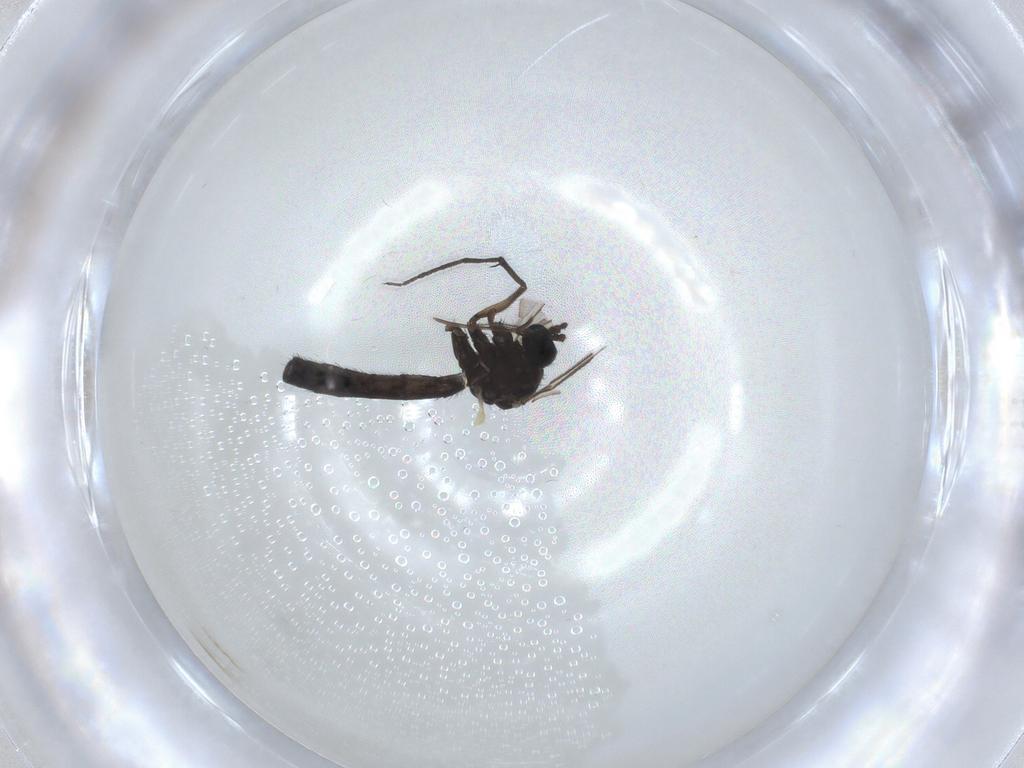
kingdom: Animalia
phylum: Arthropoda
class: Insecta
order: Diptera
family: Keroplatidae
